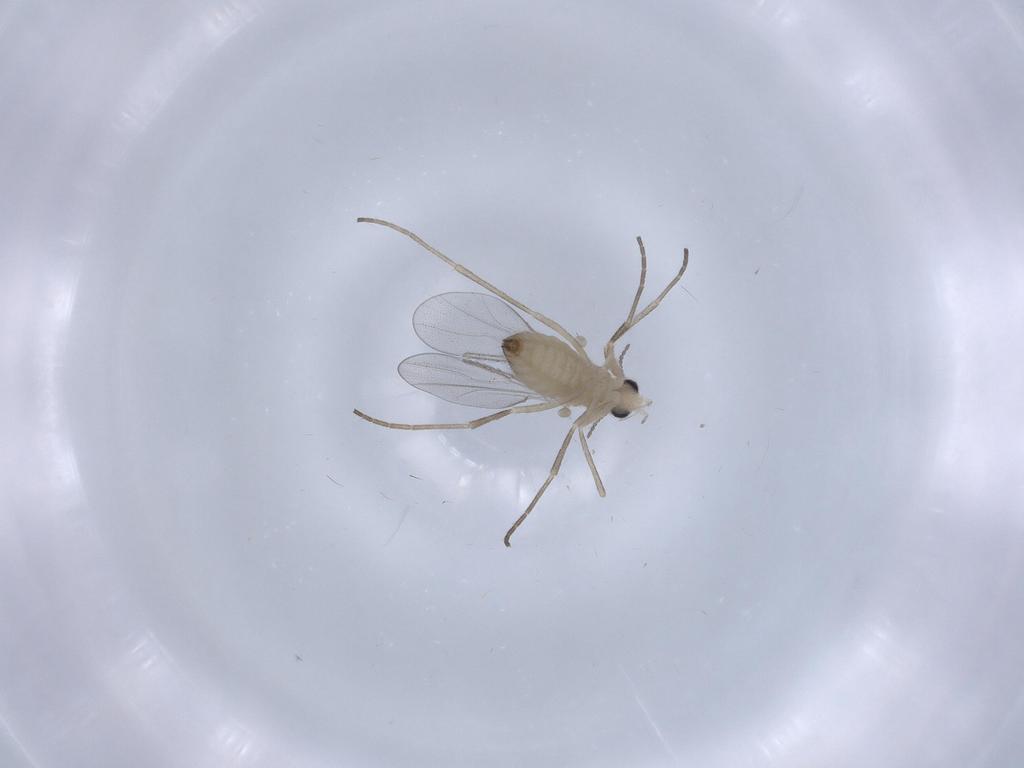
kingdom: Animalia
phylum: Arthropoda
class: Insecta
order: Diptera
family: Cecidomyiidae
